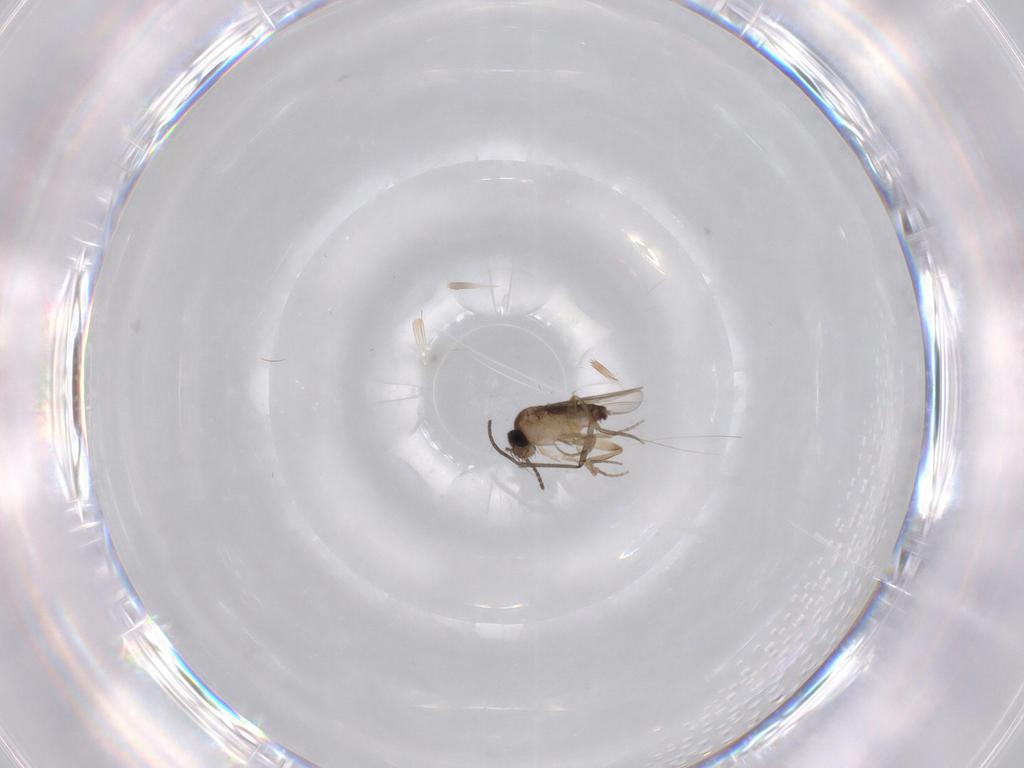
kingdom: Animalia
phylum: Arthropoda
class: Insecta
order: Diptera
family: Phoridae
